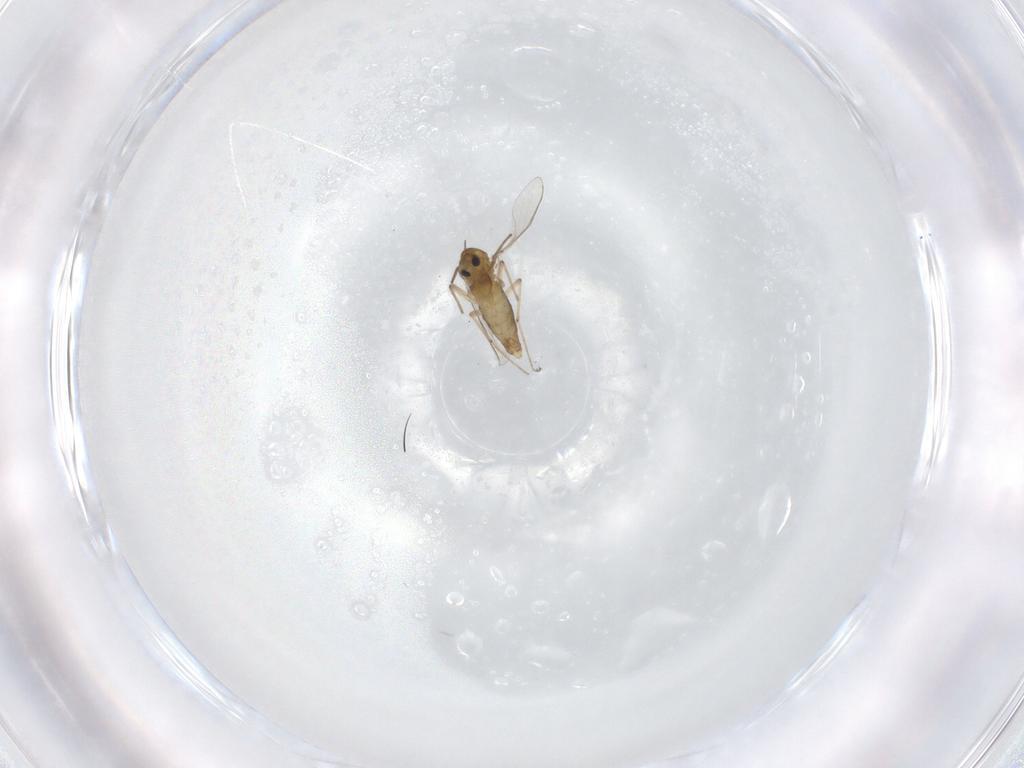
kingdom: Animalia
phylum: Arthropoda
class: Insecta
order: Diptera
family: Chironomidae
